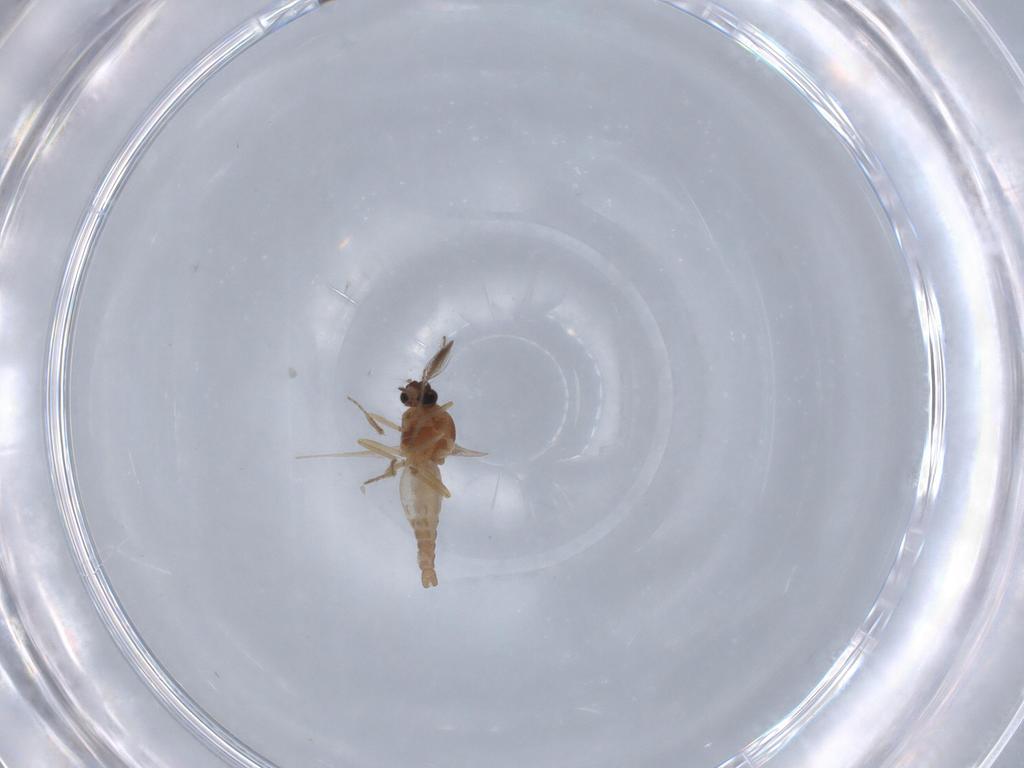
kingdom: Animalia
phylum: Arthropoda
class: Insecta
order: Diptera
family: Ceratopogonidae
